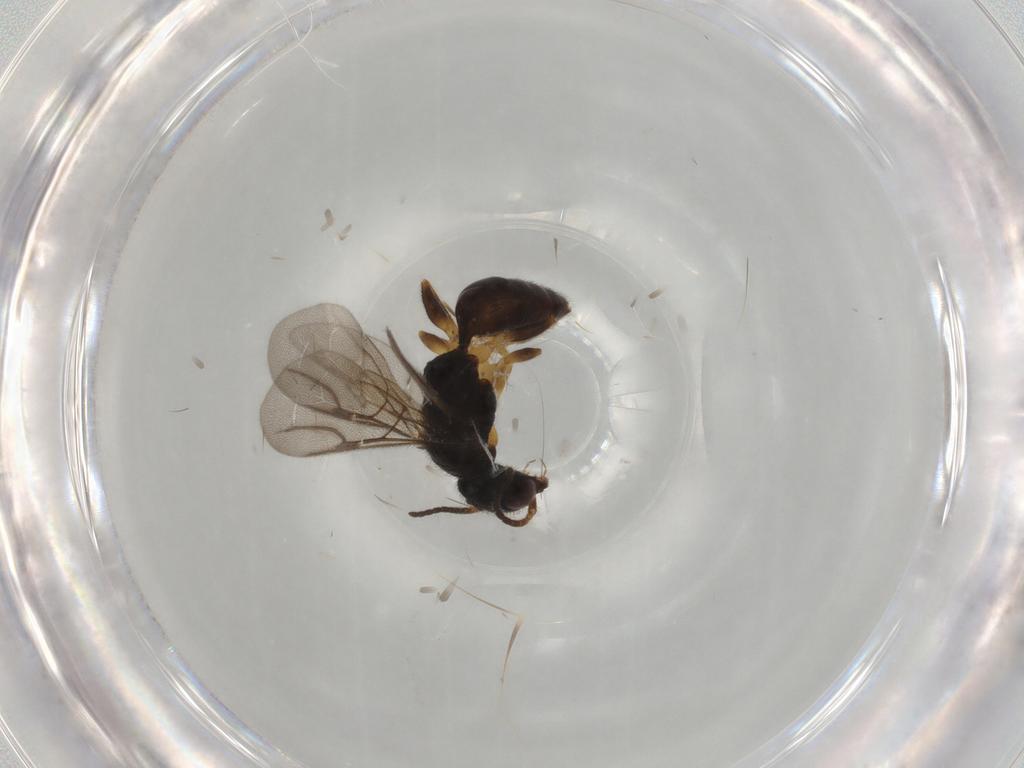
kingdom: Animalia
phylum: Arthropoda
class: Insecta
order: Hymenoptera
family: Bethylidae
